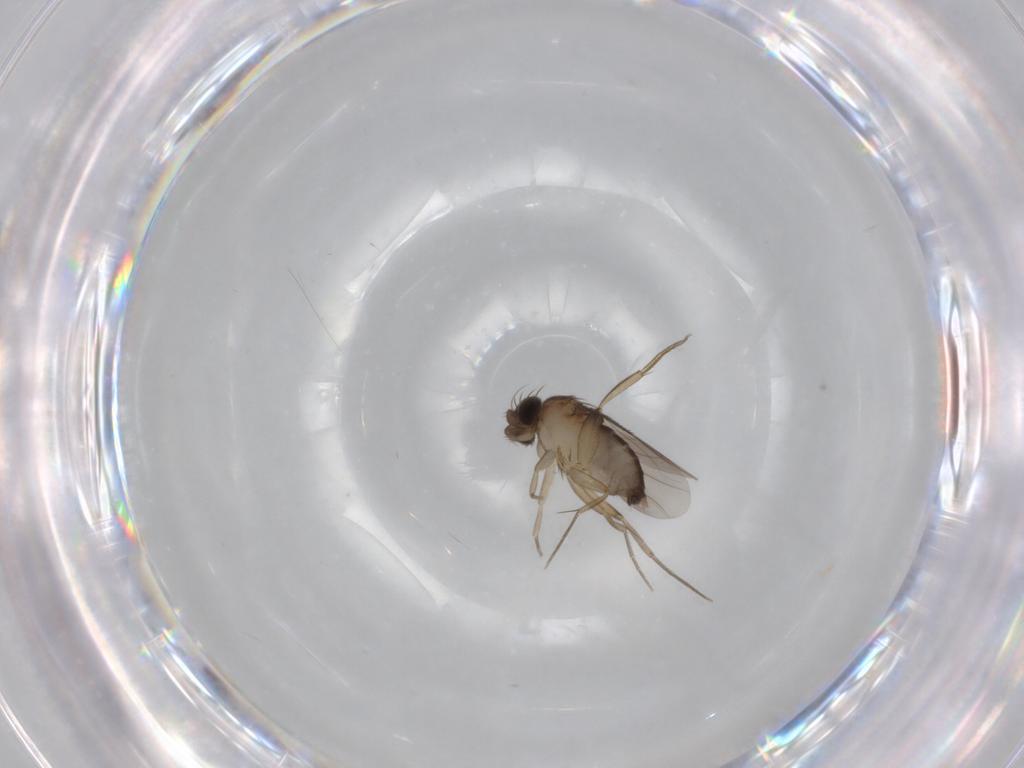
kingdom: Animalia
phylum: Arthropoda
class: Insecta
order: Diptera
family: Phoridae
